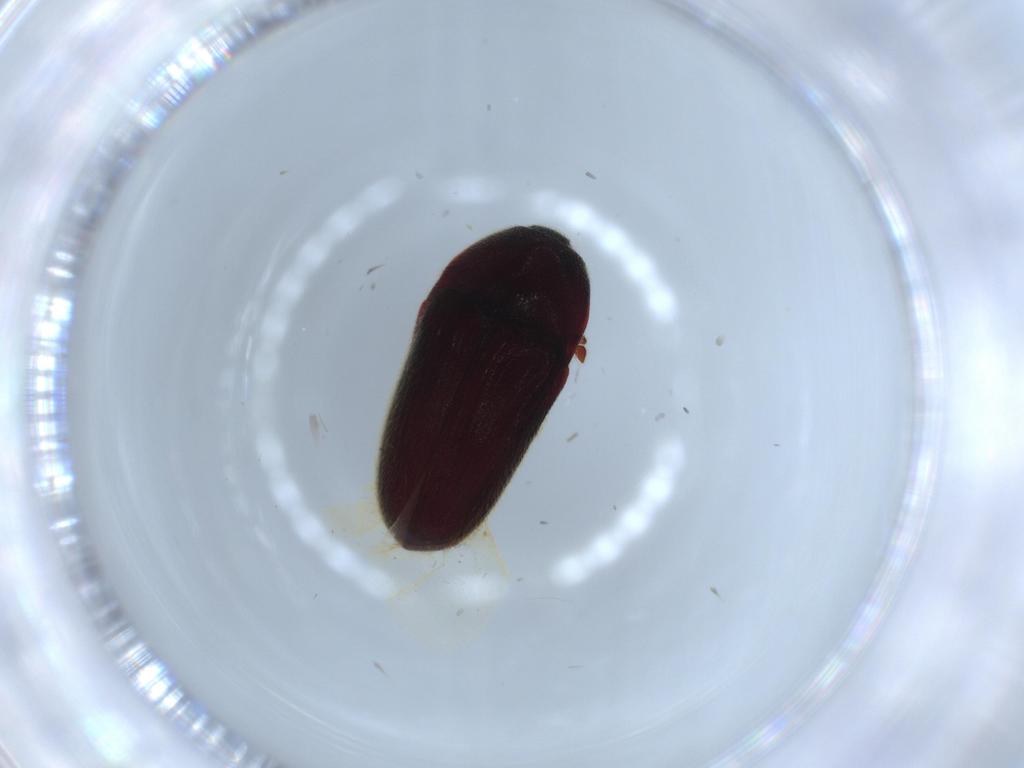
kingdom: Animalia
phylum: Arthropoda
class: Insecta
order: Coleoptera
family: Throscidae
